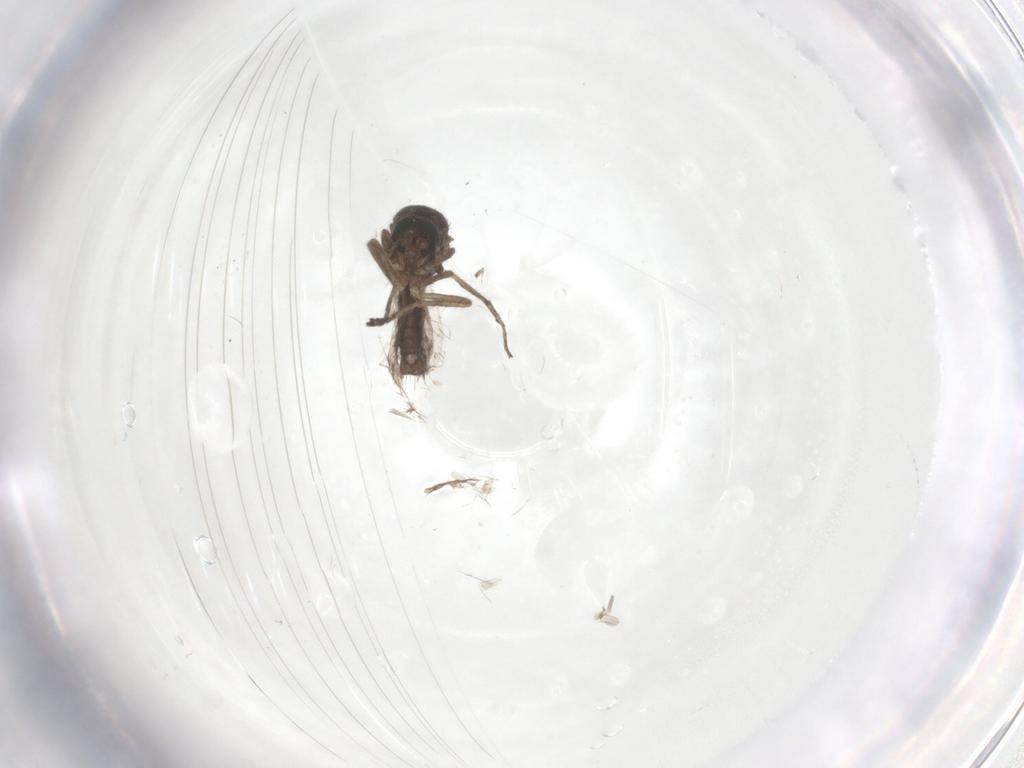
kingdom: Animalia
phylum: Arthropoda
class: Insecta
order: Diptera
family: Ceratopogonidae
